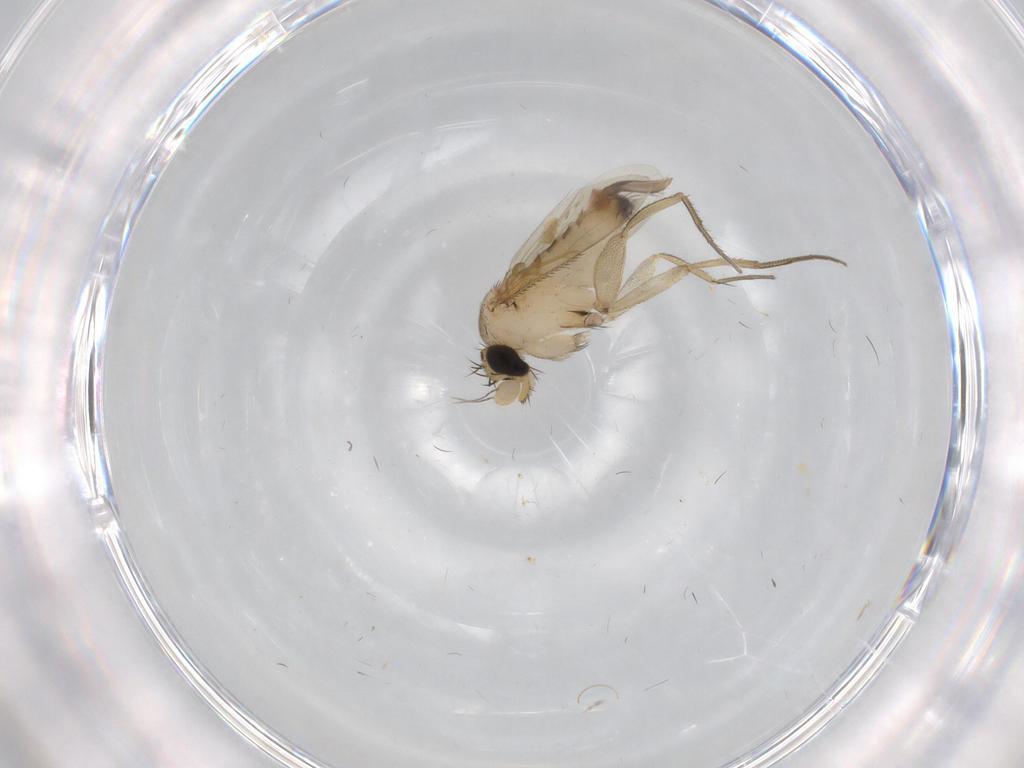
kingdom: Animalia
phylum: Arthropoda
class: Insecta
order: Diptera
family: Phoridae
